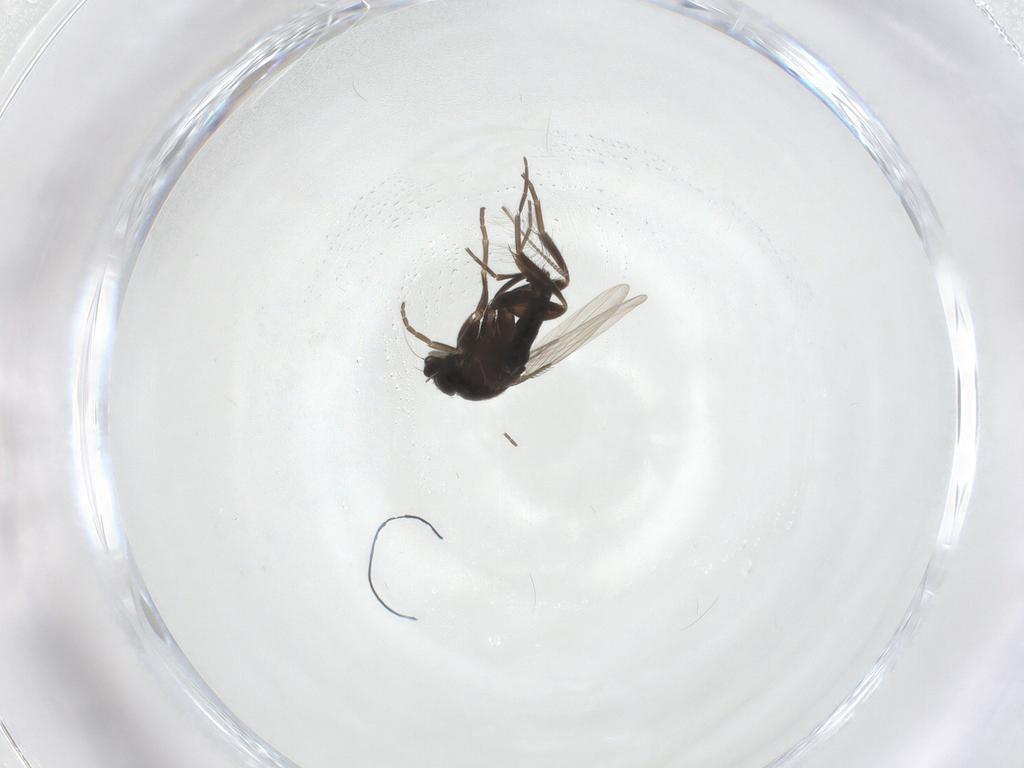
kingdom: Animalia
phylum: Arthropoda
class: Insecta
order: Diptera
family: Phoridae
